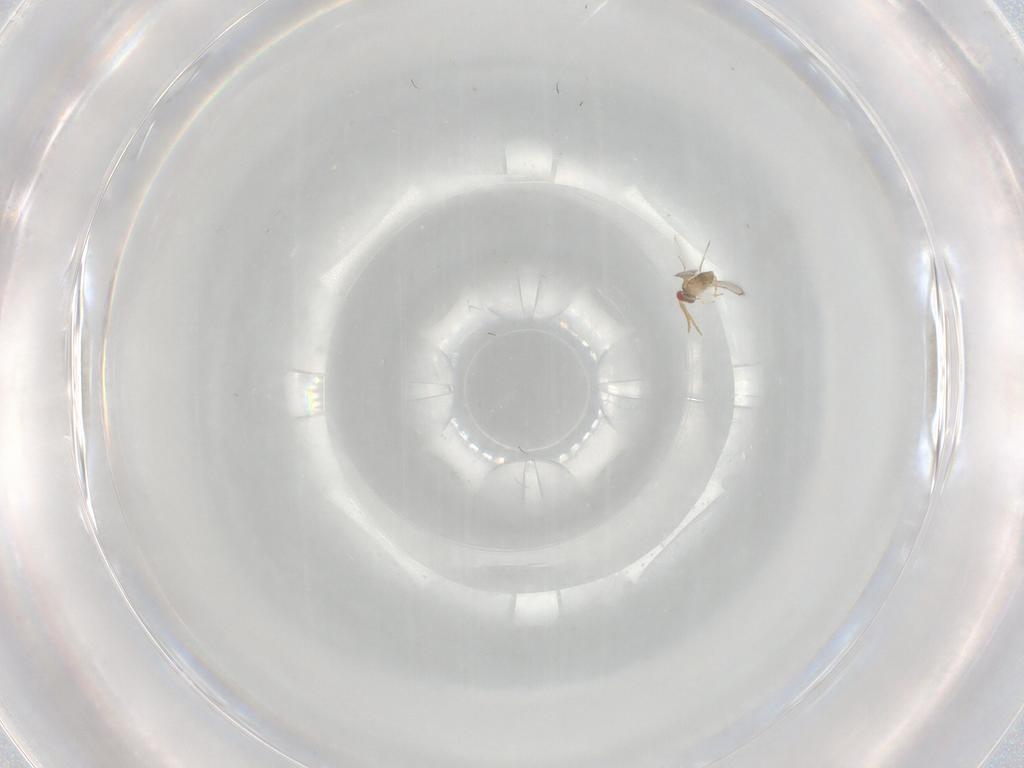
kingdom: Animalia
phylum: Arthropoda
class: Insecta
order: Hymenoptera
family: Aphelinidae
